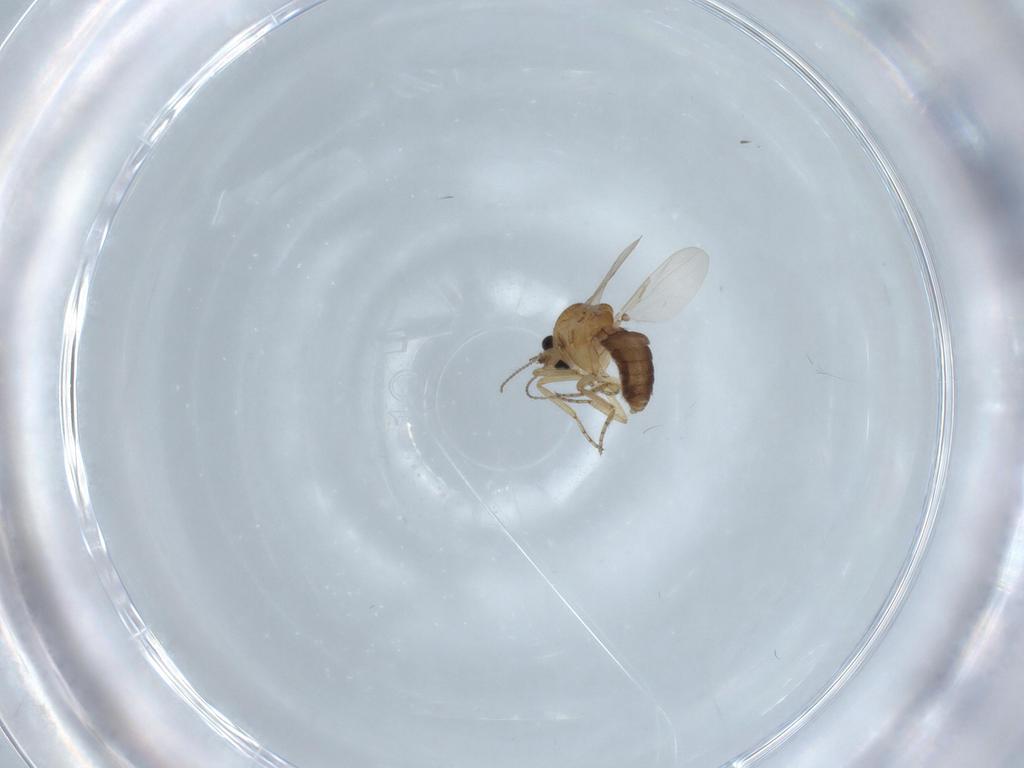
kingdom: Animalia
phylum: Arthropoda
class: Insecta
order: Diptera
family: Ceratopogonidae
